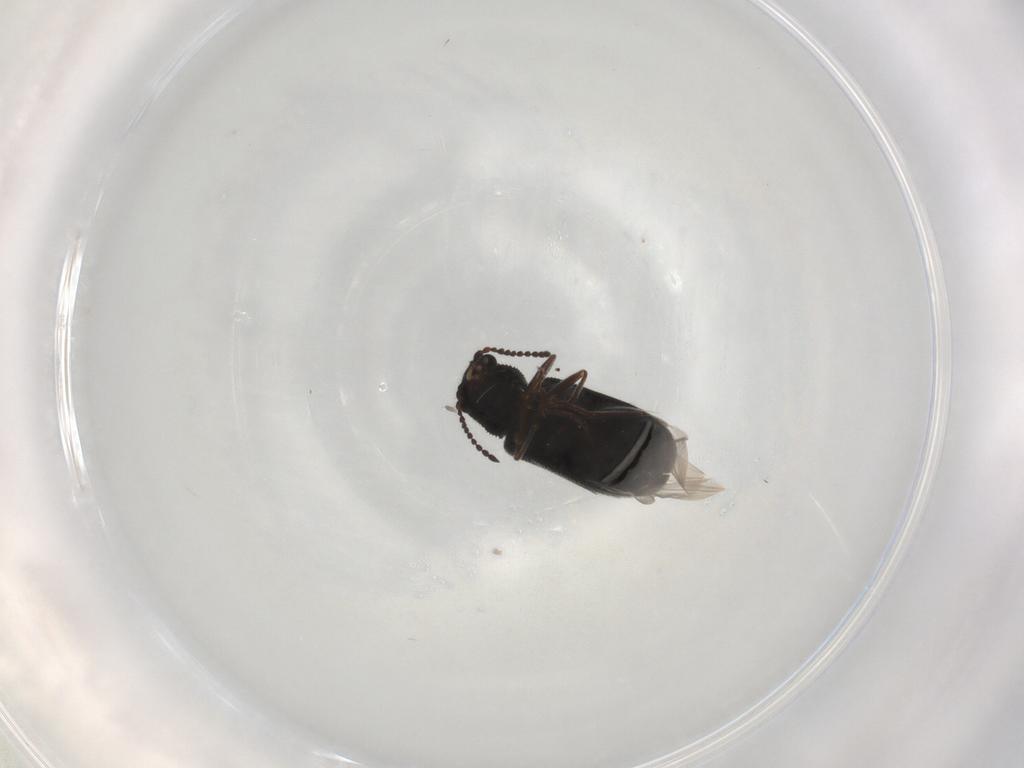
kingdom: Animalia
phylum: Arthropoda
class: Insecta
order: Coleoptera
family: Melyridae
